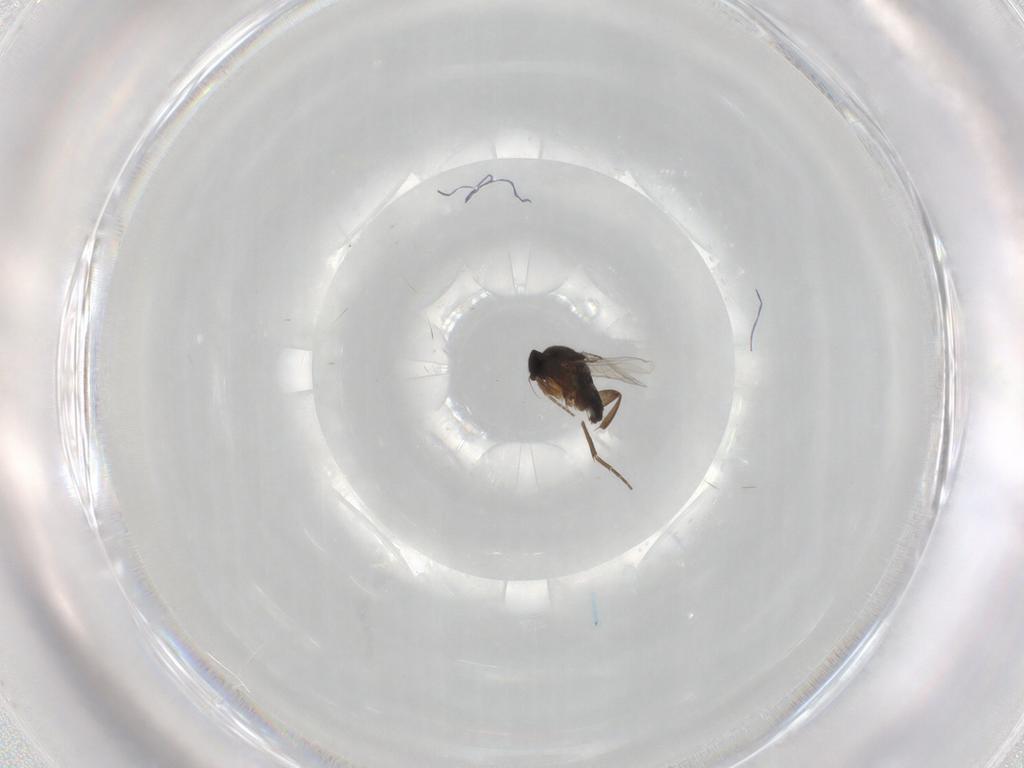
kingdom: Animalia
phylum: Arthropoda
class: Insecta
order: Diptera
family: Phoridae
